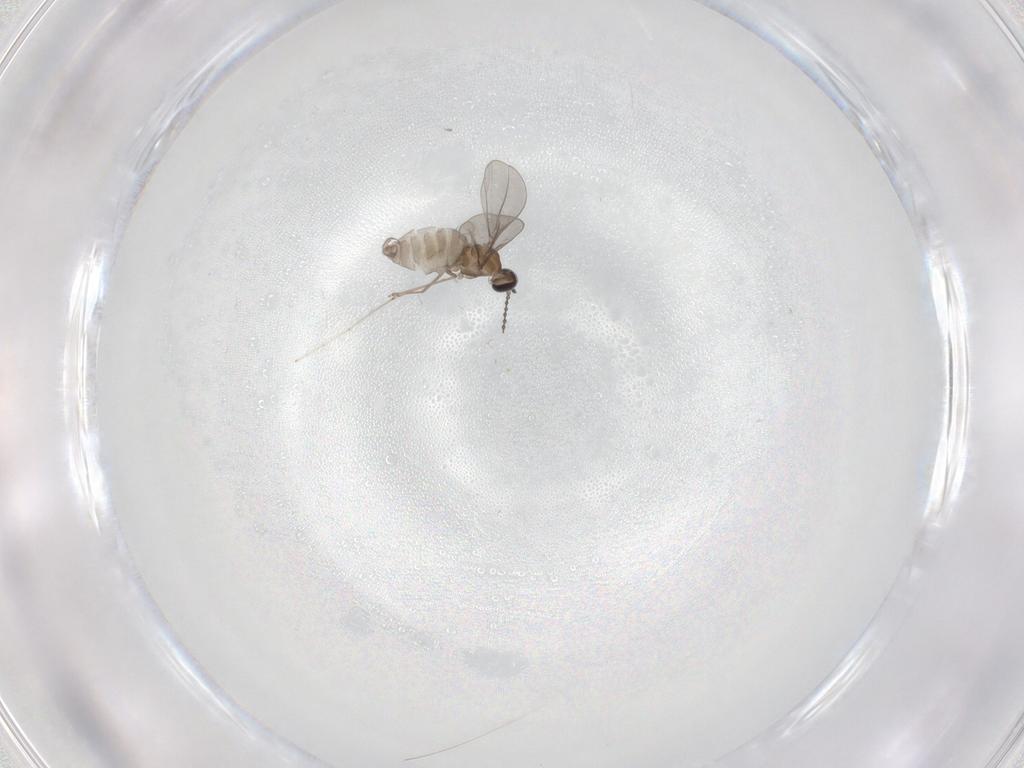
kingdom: Animalia
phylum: Arthropoda
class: Insecta
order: Diptera
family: Cecidomyiidae
